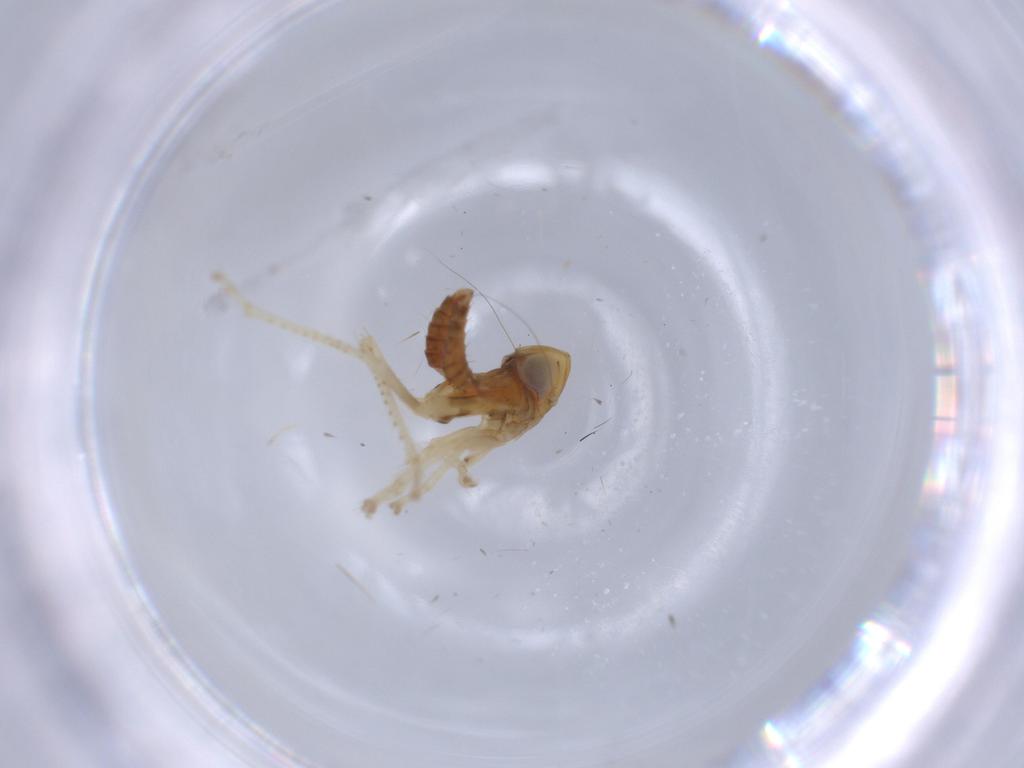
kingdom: Animalia
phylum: Arthropoda
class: Insecta
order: Hemiptera
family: Cicadellidae
